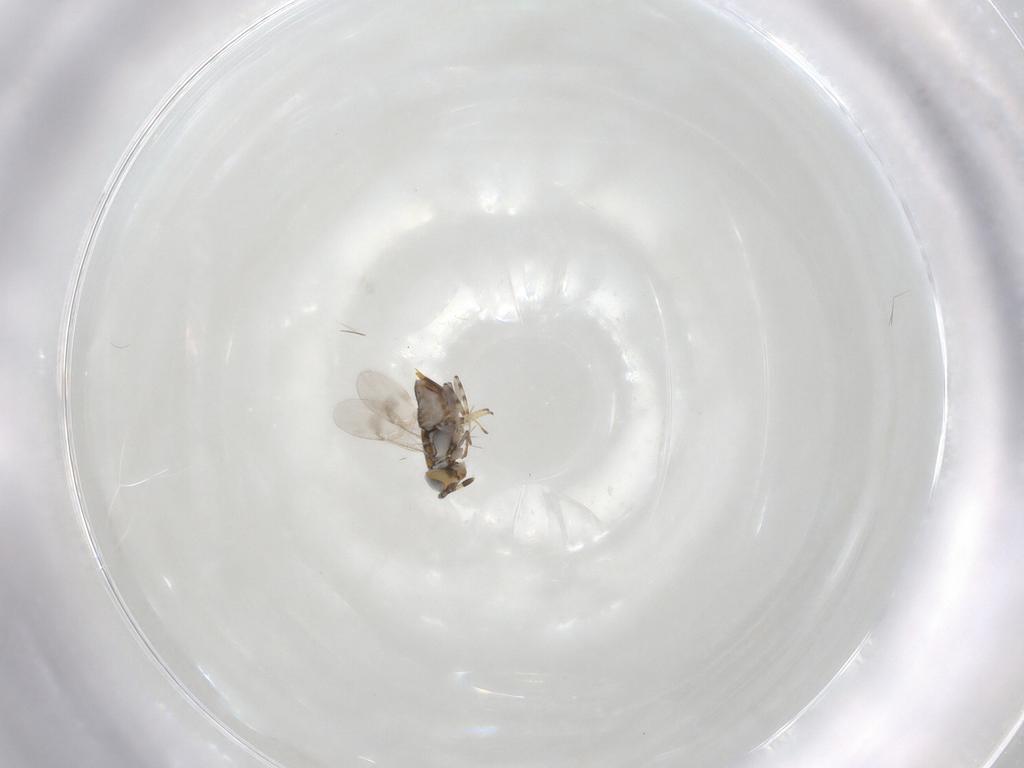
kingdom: Animalia
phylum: Arthropoda
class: Insecta
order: Hymenoptera
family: Encyrtidae
